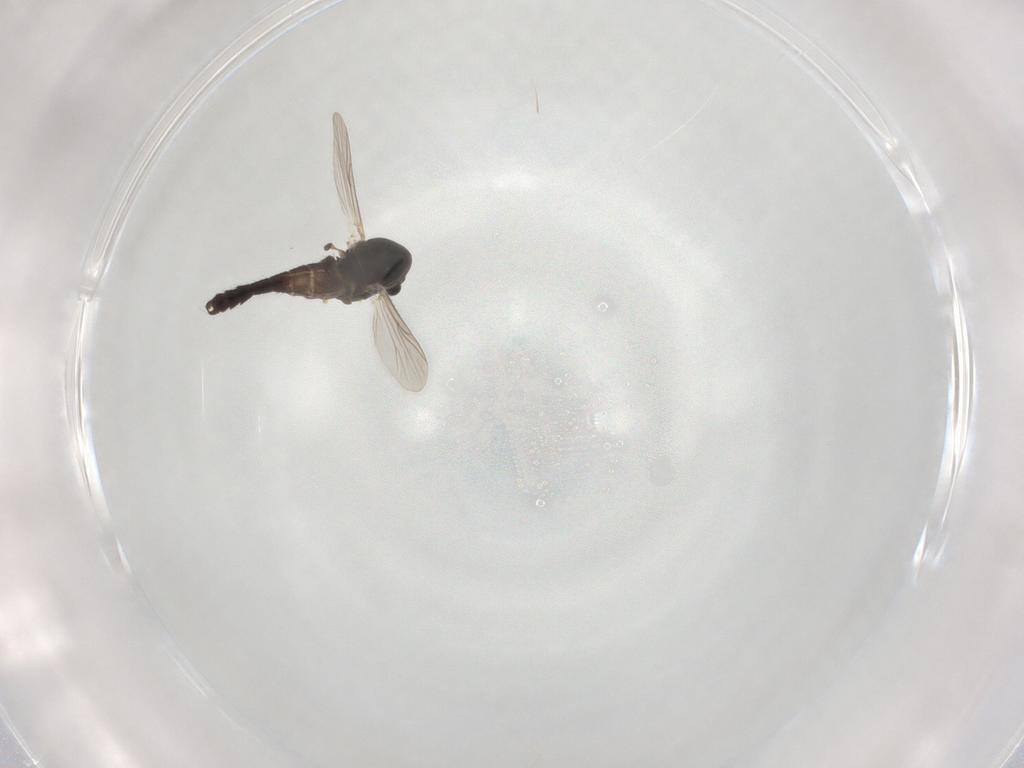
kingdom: Animalia
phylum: Arthropoda
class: Insecta
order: Diptera
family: Chironomidae
